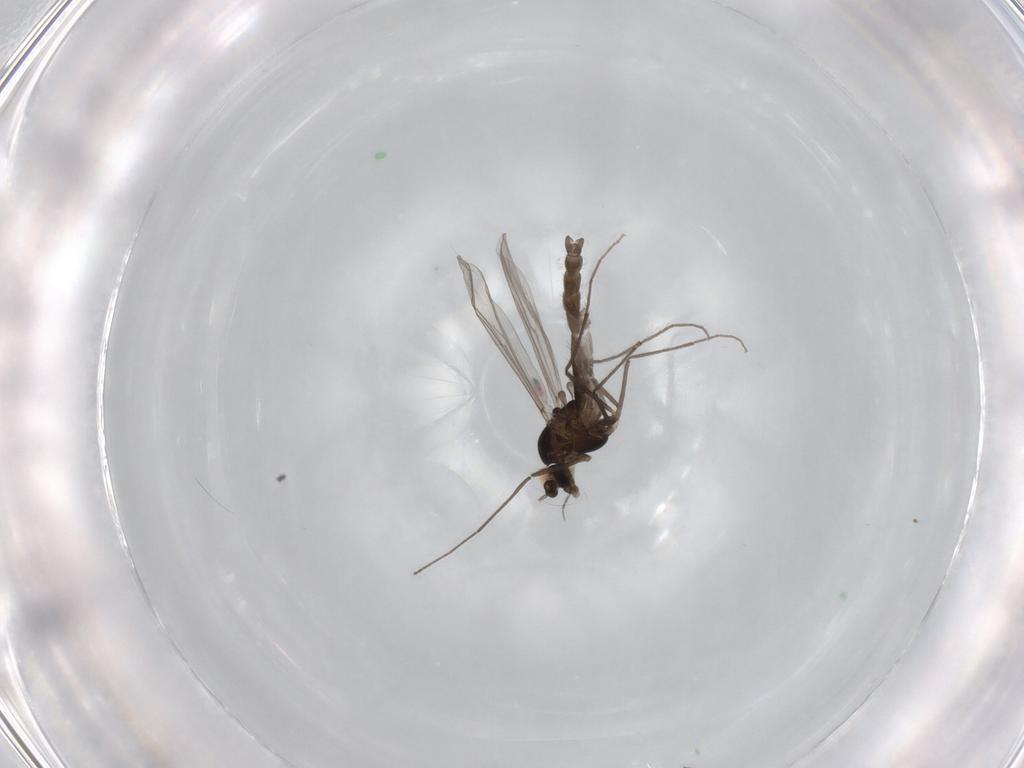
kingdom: Animalia
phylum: Arthropoda
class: Insecta
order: Diptera
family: Chironomidae
